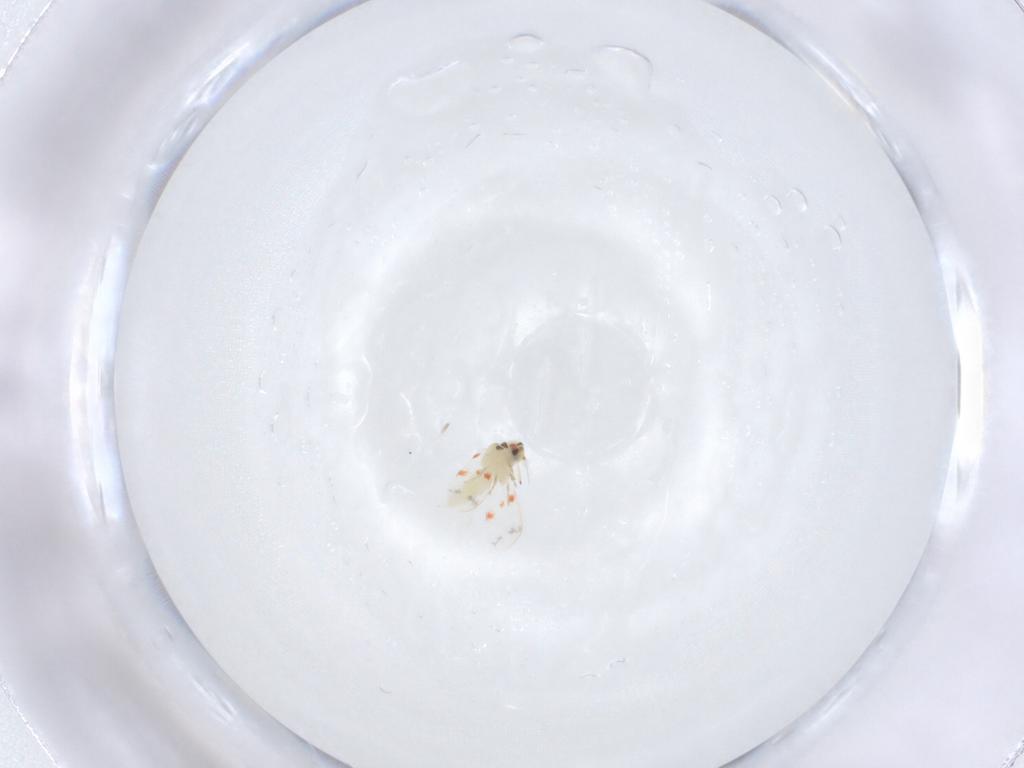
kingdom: Animalia
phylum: Arthropoda
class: Insecta
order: Hemiptera
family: Aleyrodidae
